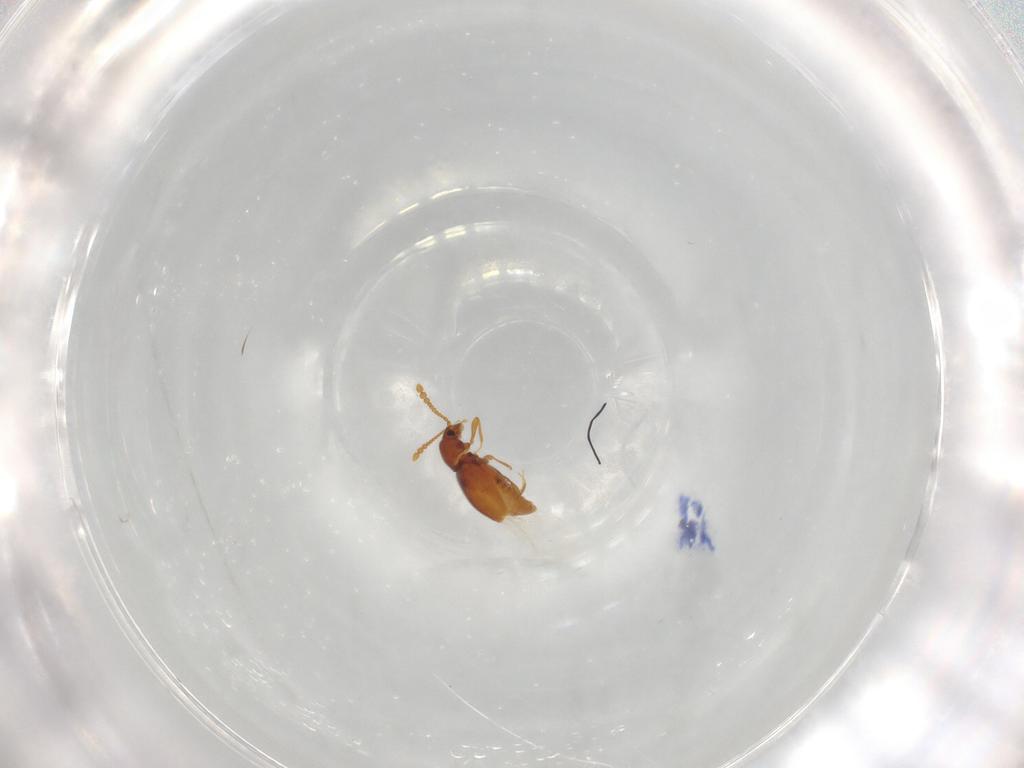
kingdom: Animalia
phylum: Arthropoda
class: Insecta
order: Coleoptera
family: Staphylinidae
